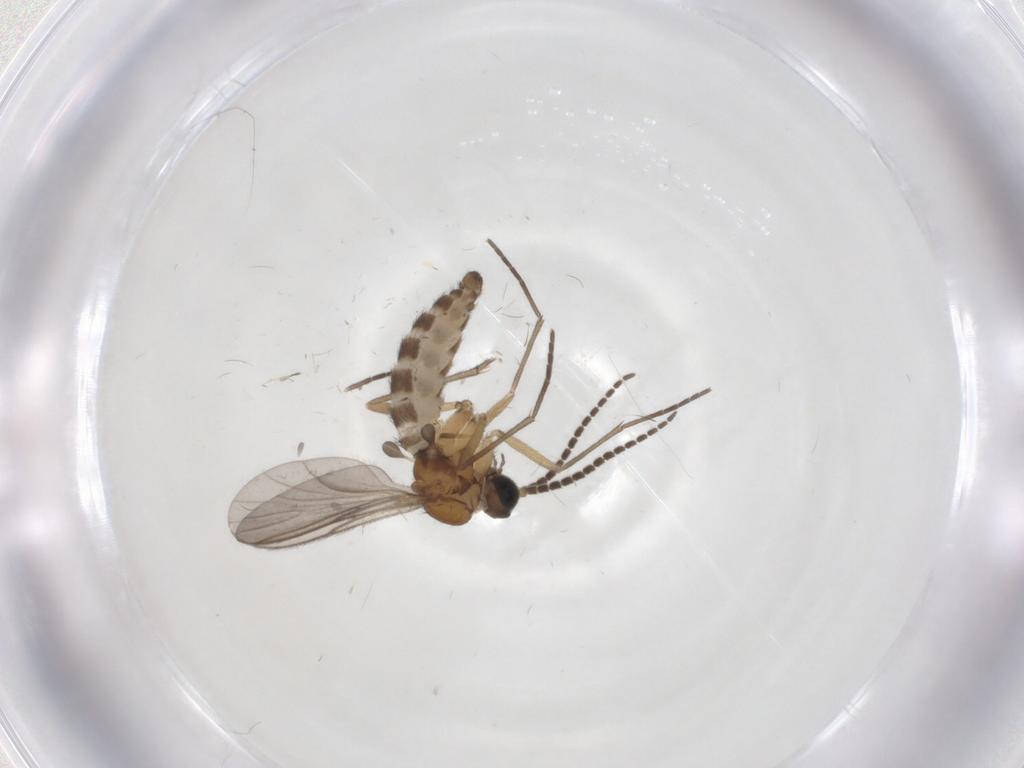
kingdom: Animalia
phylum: Arthropoda
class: Insecta
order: Diptera
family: Sciaridae
